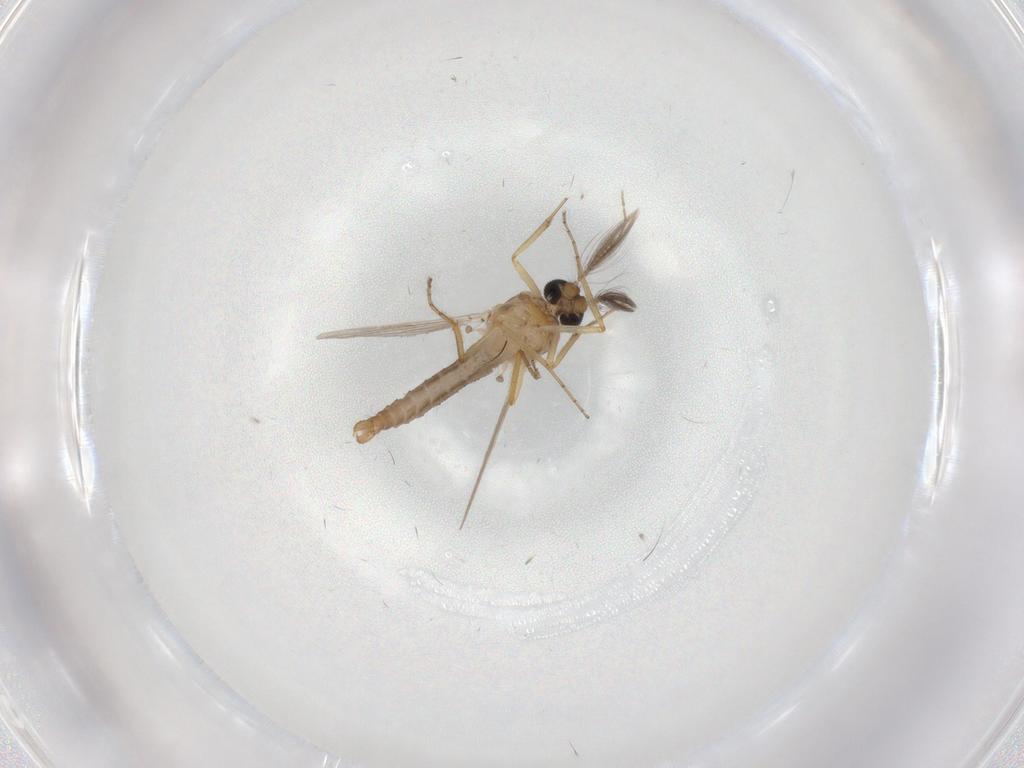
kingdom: Animalia
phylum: Arthropoda
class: Insecta
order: Diptera
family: Ceratopogonidae
